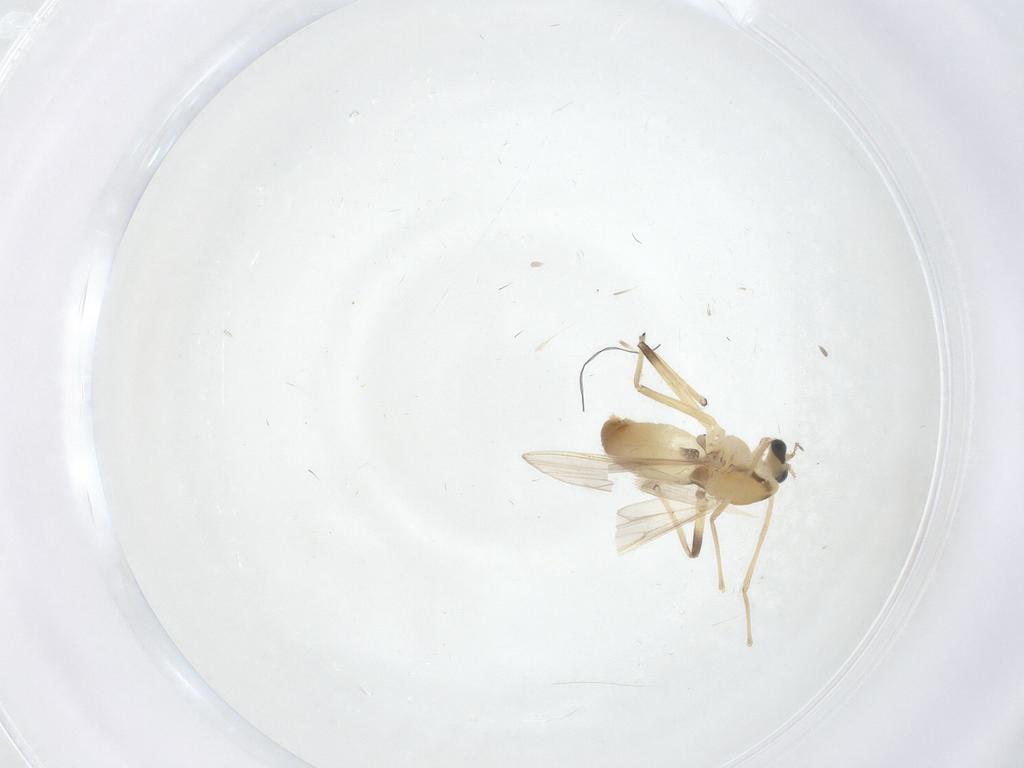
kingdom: Animalia
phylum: Arthropoda
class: Insecta
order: Diptera
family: Chironomidae
